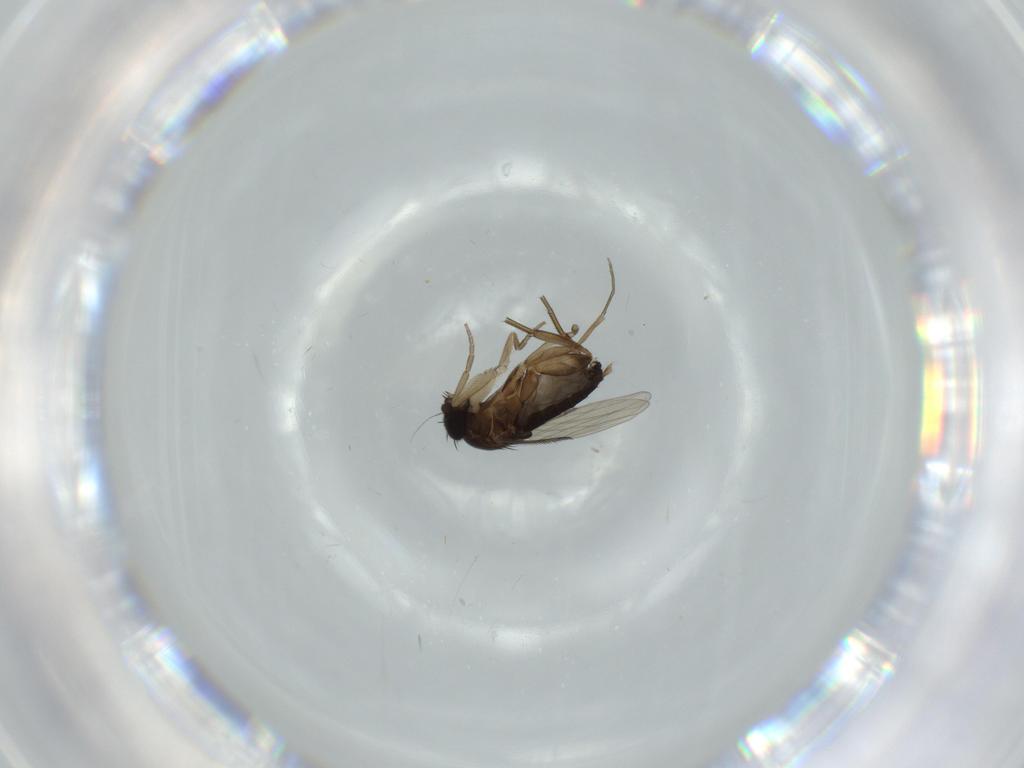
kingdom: Animalia
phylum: Arthropoda
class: Insecta
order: Diptera
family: Phoridae
